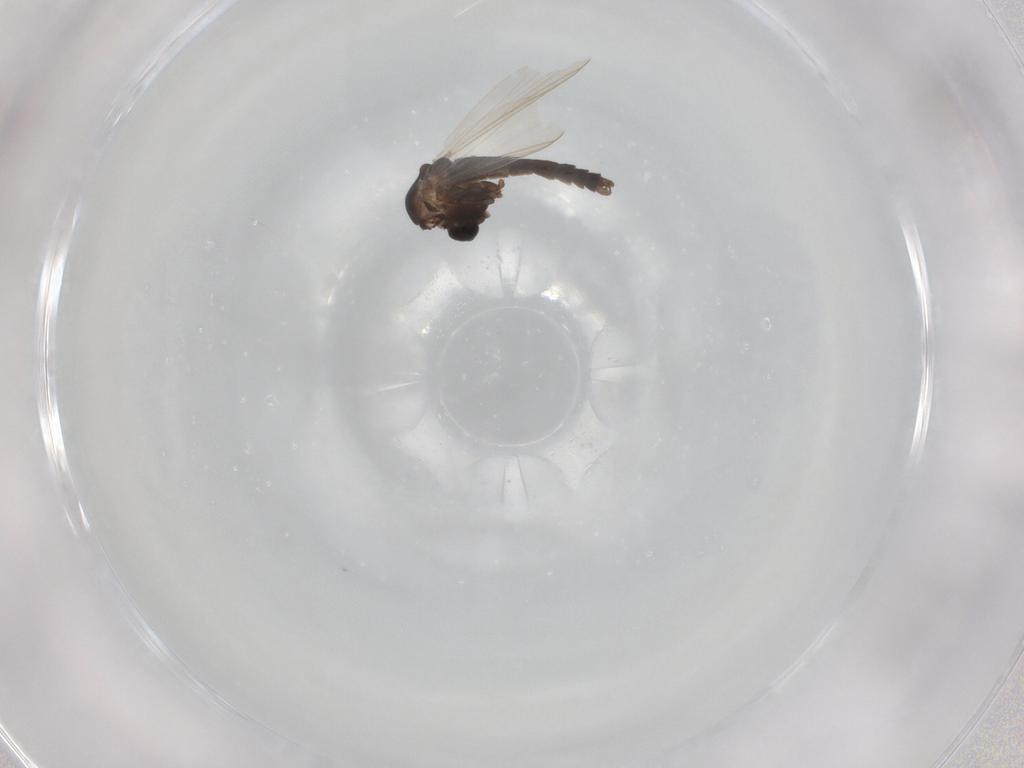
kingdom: Animalia
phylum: Arthropoda
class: Insecta
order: Diptera
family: Chironomidae
